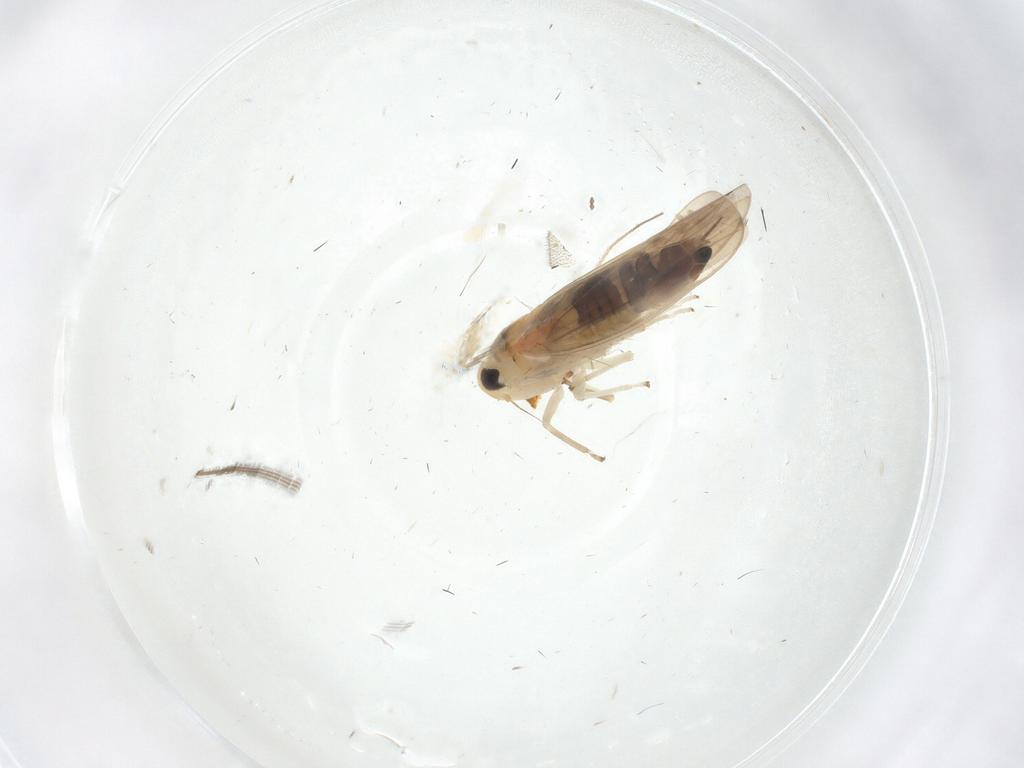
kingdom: Animalia
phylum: Arthropoda
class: Insecta
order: Hemiptera
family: Cicadellidae
